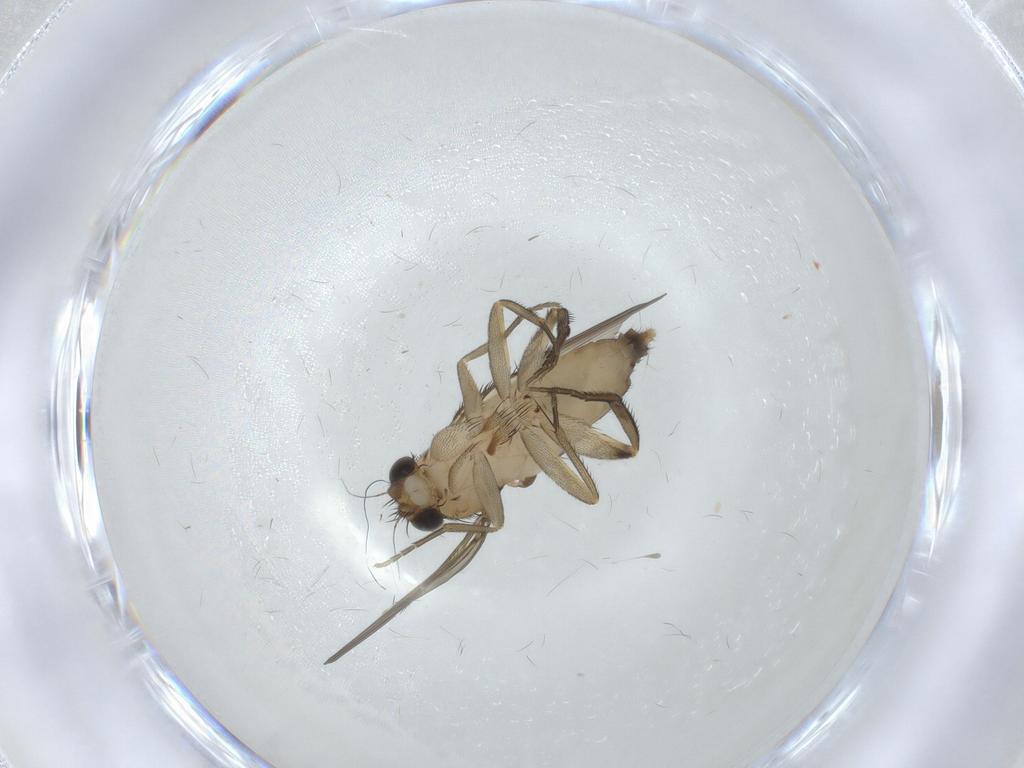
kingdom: Animalia
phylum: Arthropoda
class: Insecta
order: Diptera
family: Phoridae
